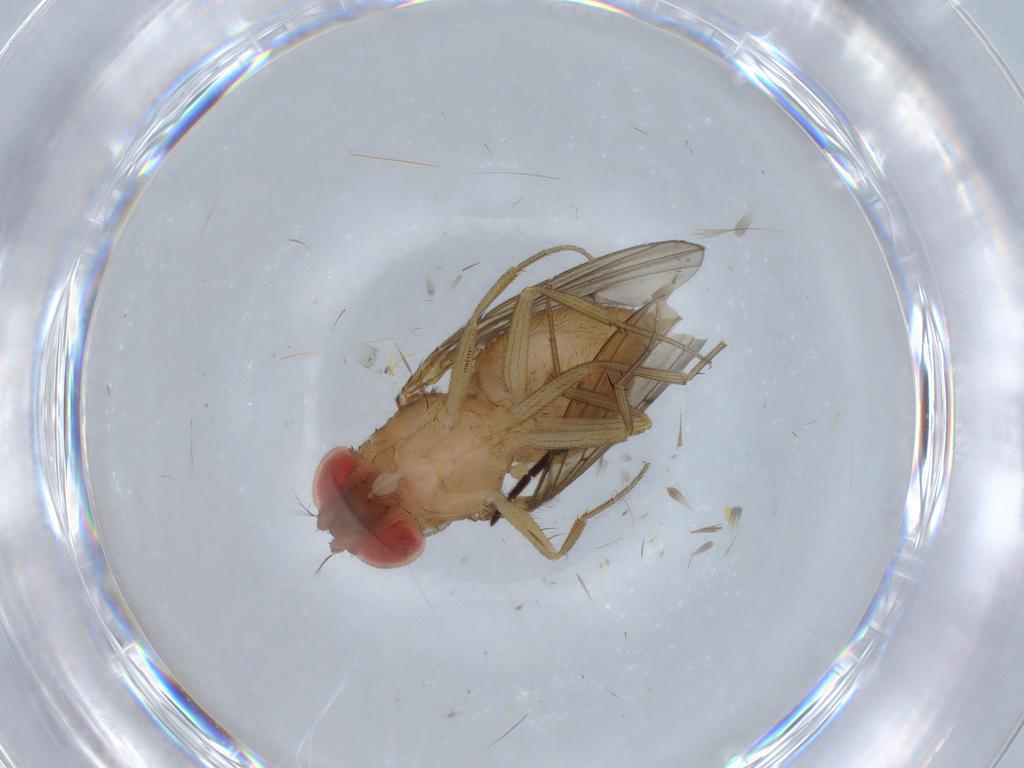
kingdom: Animalia
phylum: Arthropoda
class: Insecta
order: Diptera
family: Drosophilidae
